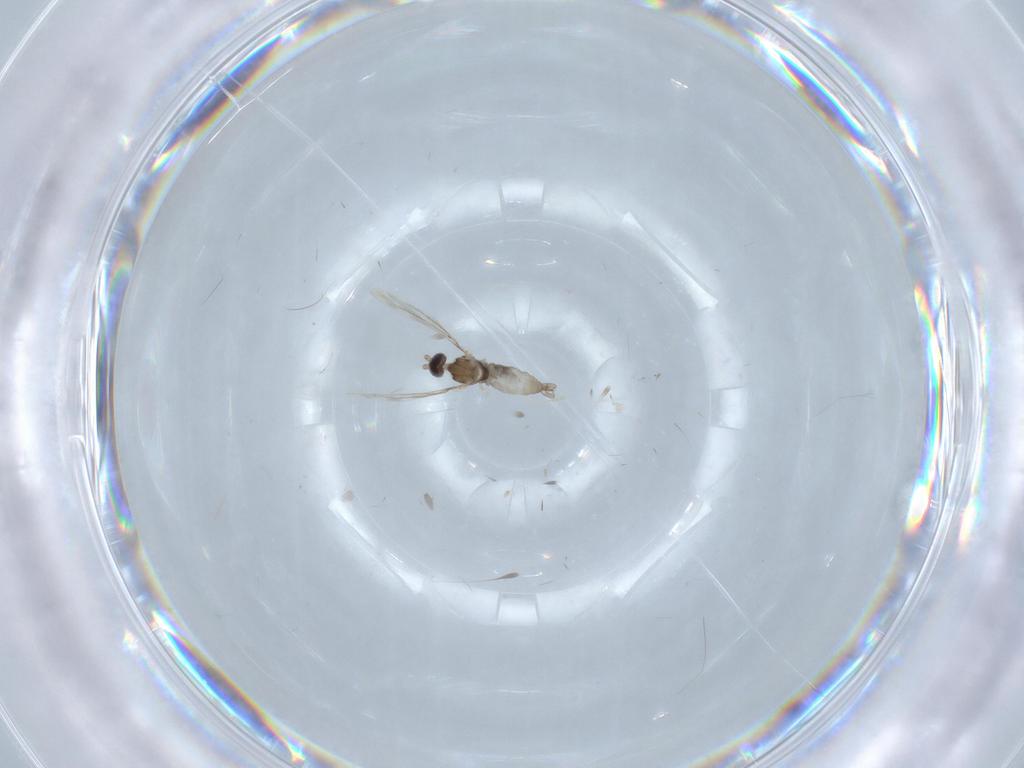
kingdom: Animalia
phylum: Arthropoda
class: Insecta
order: Diptera
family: Cecidomyiidae
